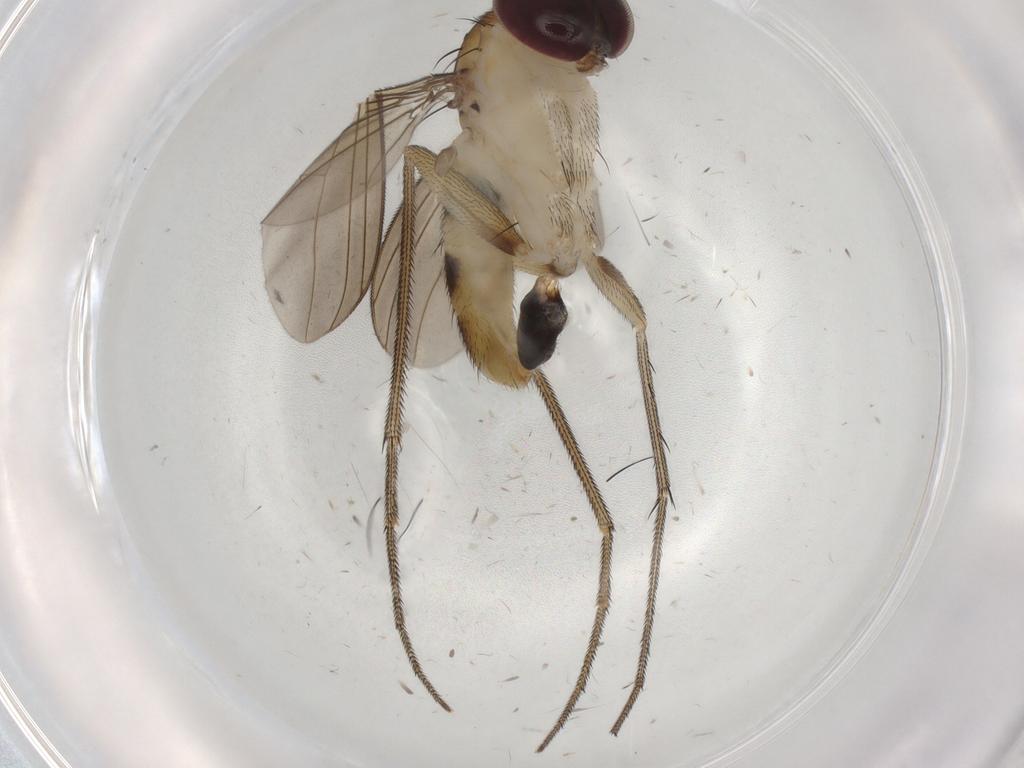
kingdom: Animalia
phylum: Arthropoda
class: Insecta
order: Diptera
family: Dolichopodidae
